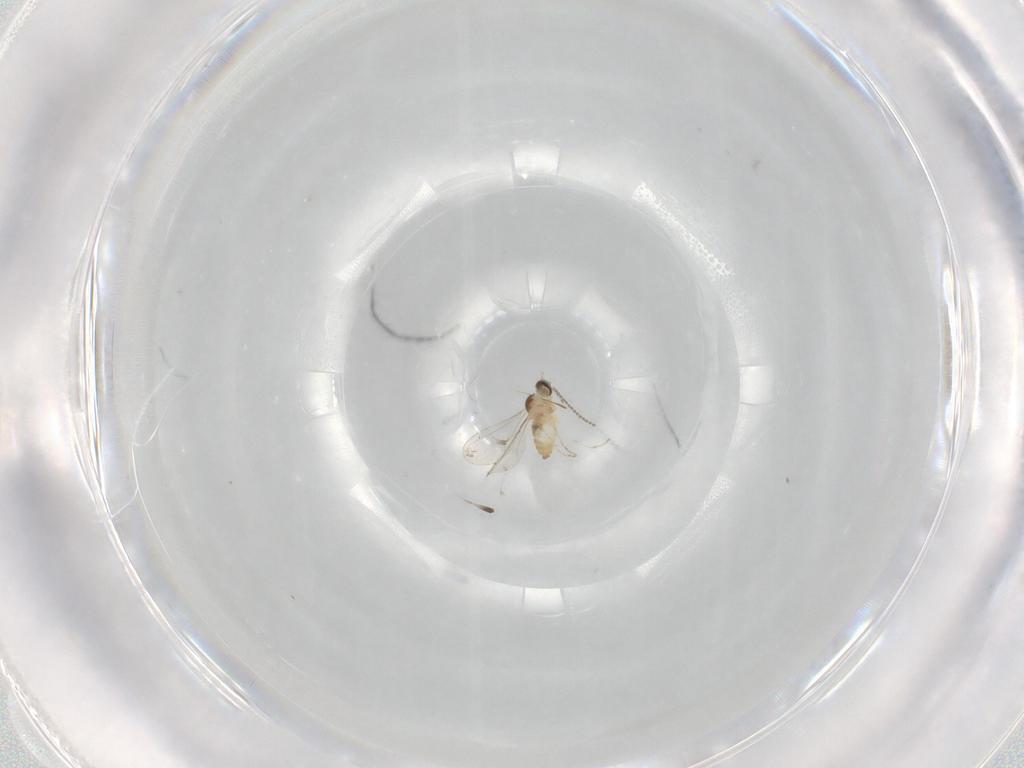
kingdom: Animalia
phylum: Arthropoda
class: Insecta
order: Diptera
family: Cecidomyiidae
